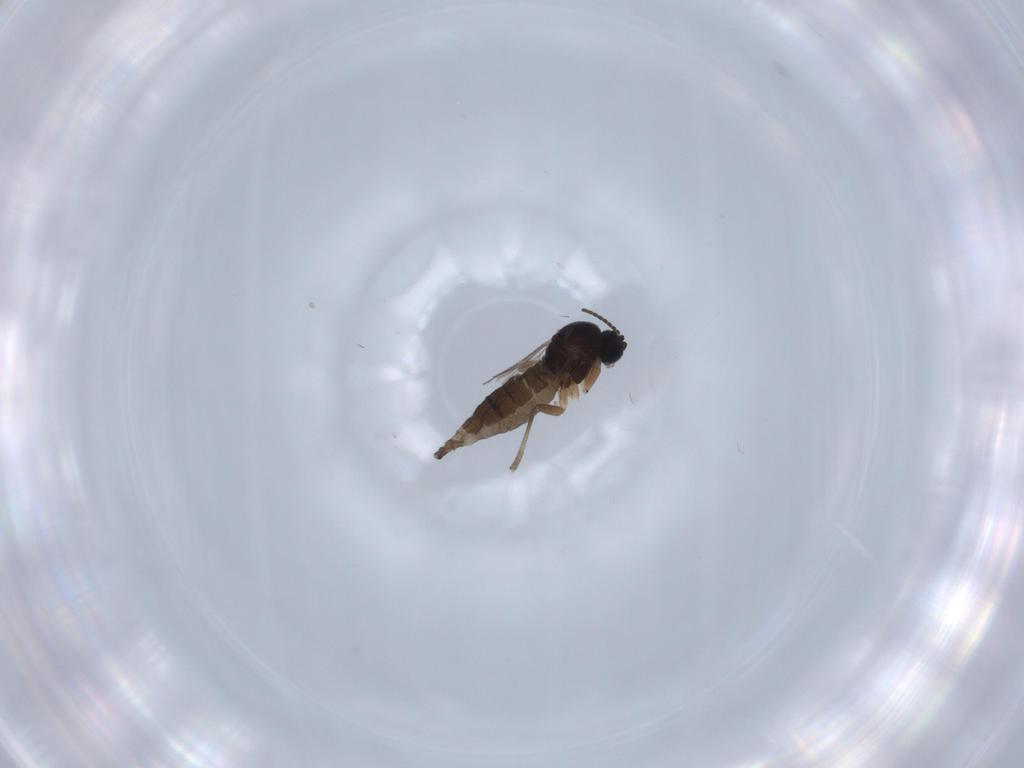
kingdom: Animalia
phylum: Arthropoda
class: Insecta
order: Diptera
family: Sciaridae
